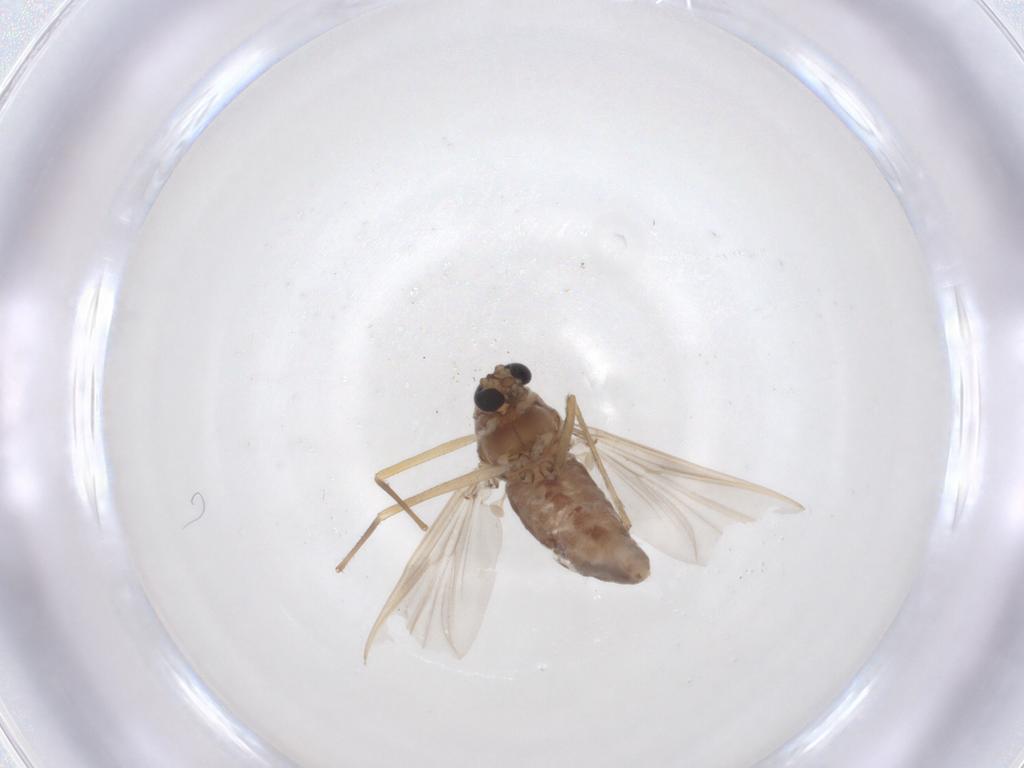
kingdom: Animalia
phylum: Arthropoda
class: Insecta
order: Diptera
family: Chironomidae
